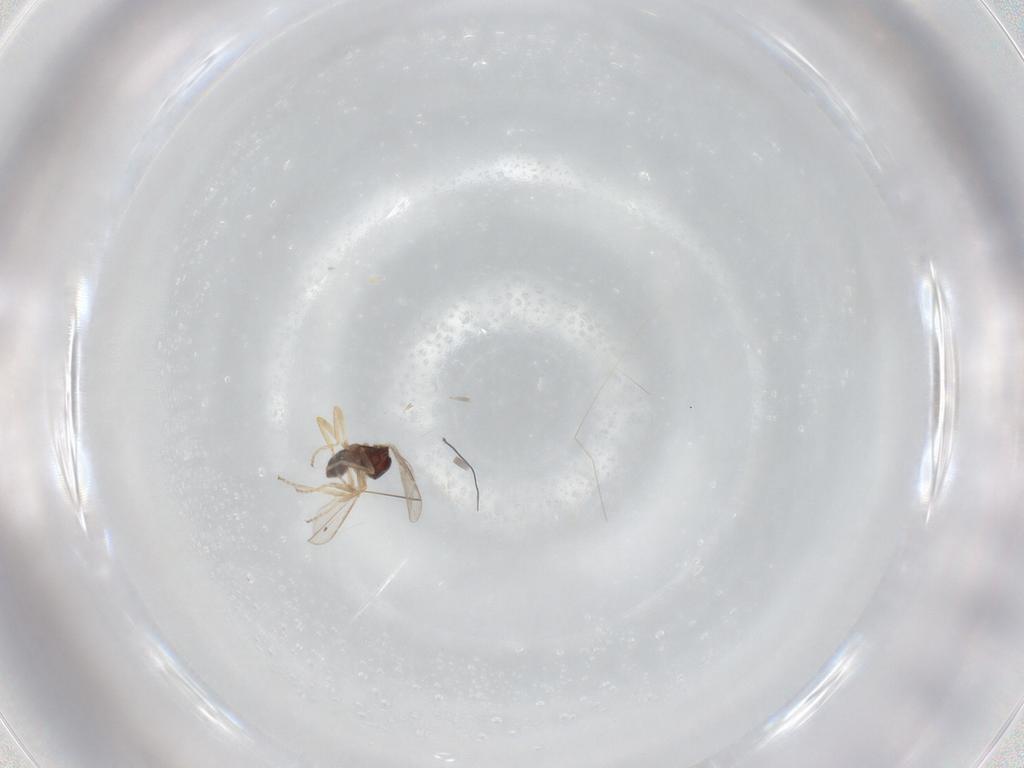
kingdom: Animalia
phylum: Arthropoda
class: Insecta
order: Diptera
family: Ceratopogonidae
